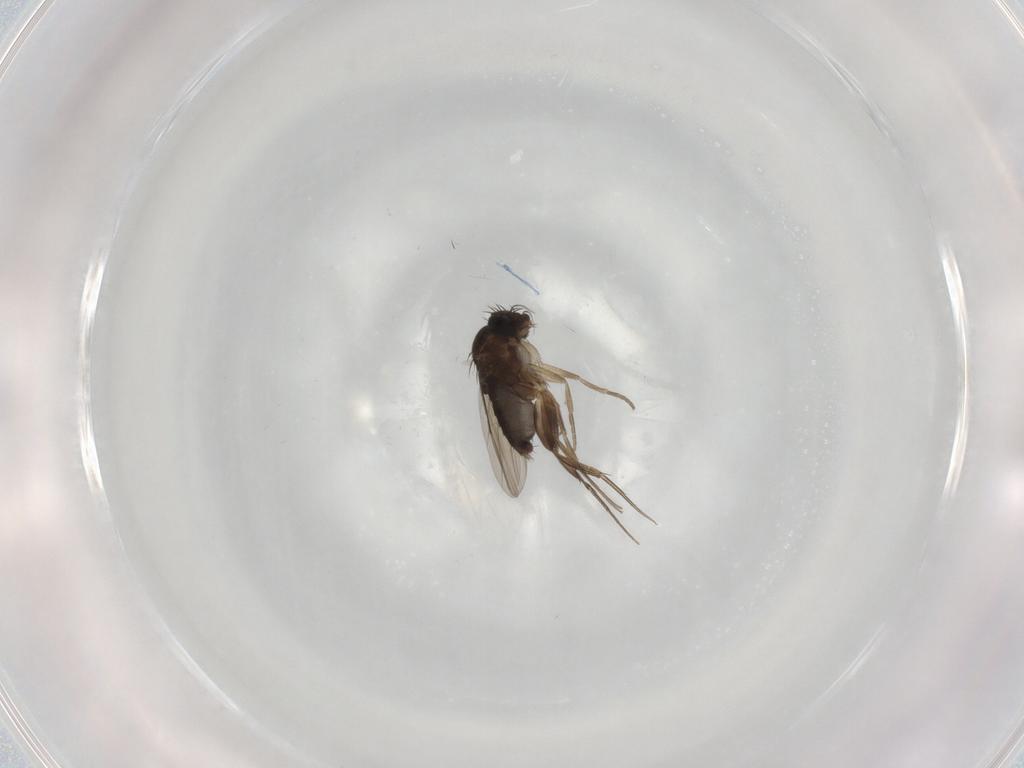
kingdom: Animalia
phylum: Arthropoda
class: Insecta
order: Diptera
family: Phoridae
